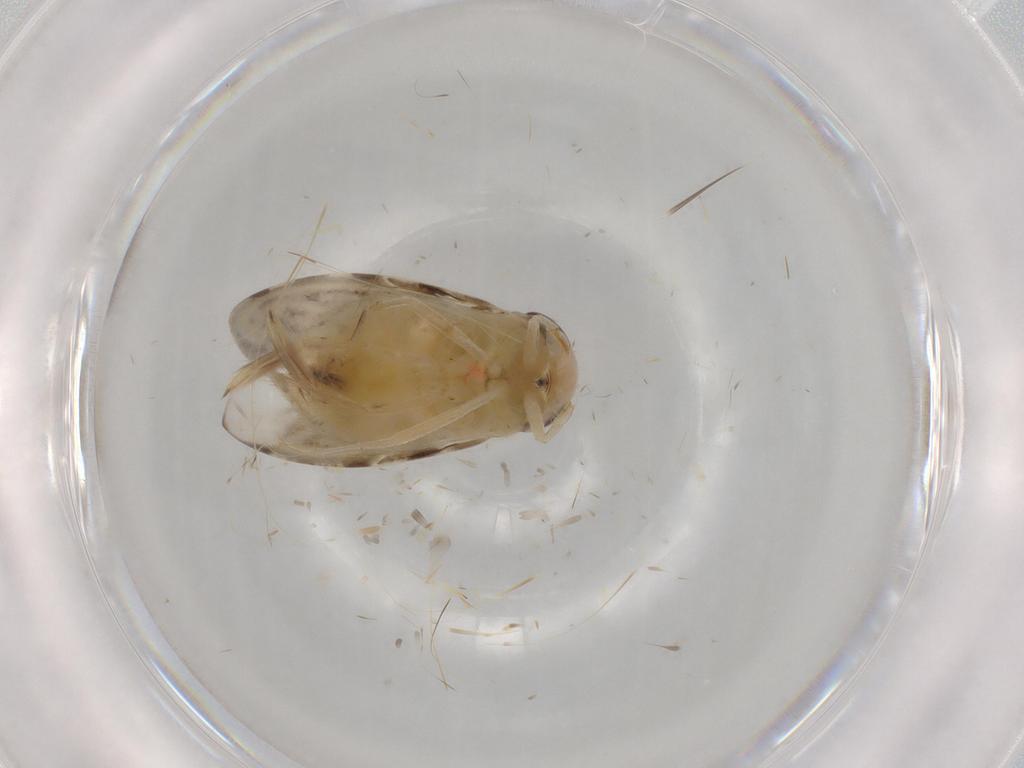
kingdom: Animalia
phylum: Arthropoda
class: Insecta
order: Hemiptera
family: Corixidae
